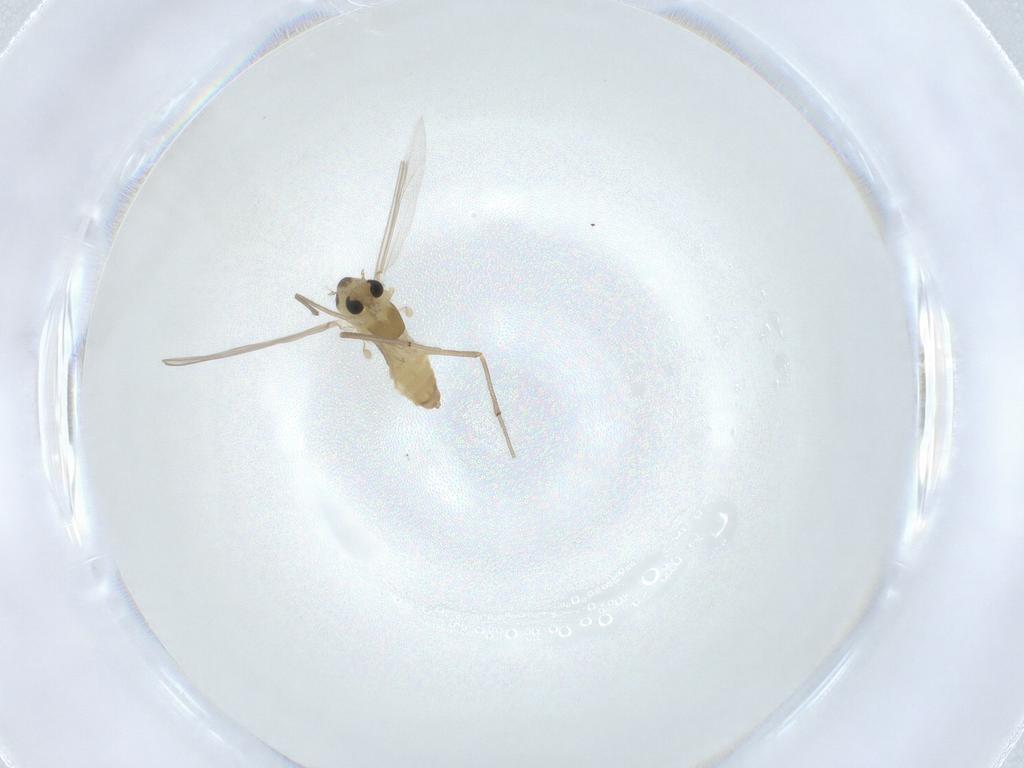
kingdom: Animalia
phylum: Arthropoda
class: Insecta
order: Diptera
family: Chironomidae
